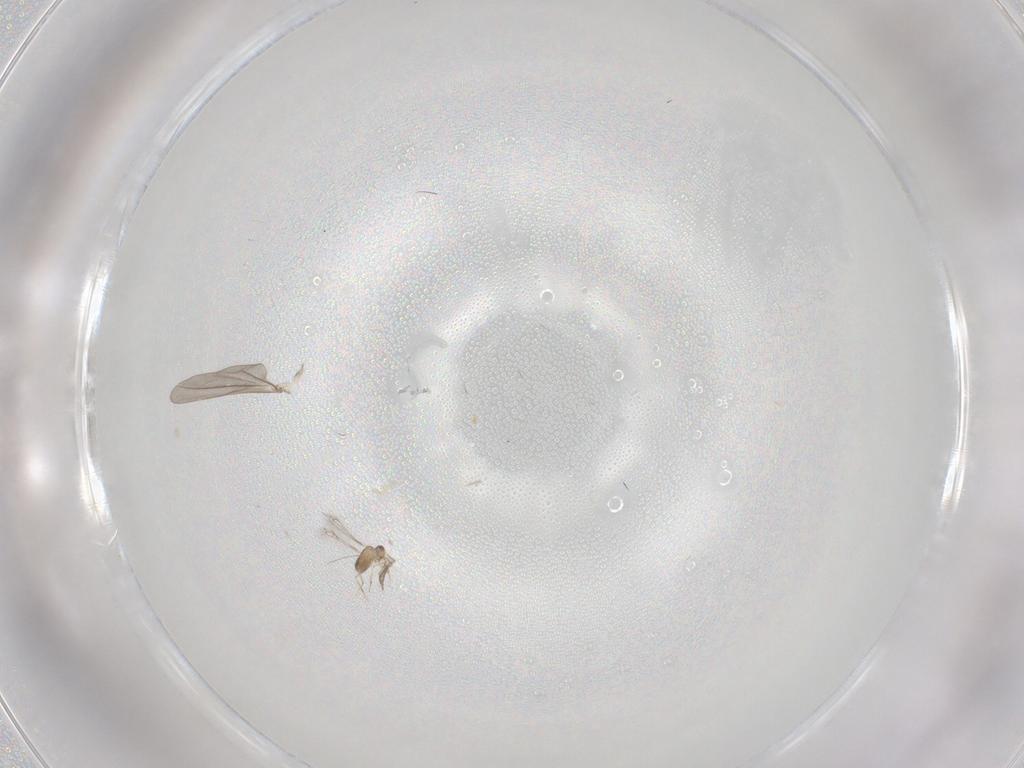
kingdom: Animalia
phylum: Arthropoda
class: Insecta
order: Hymenoptera
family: Mymaridae
